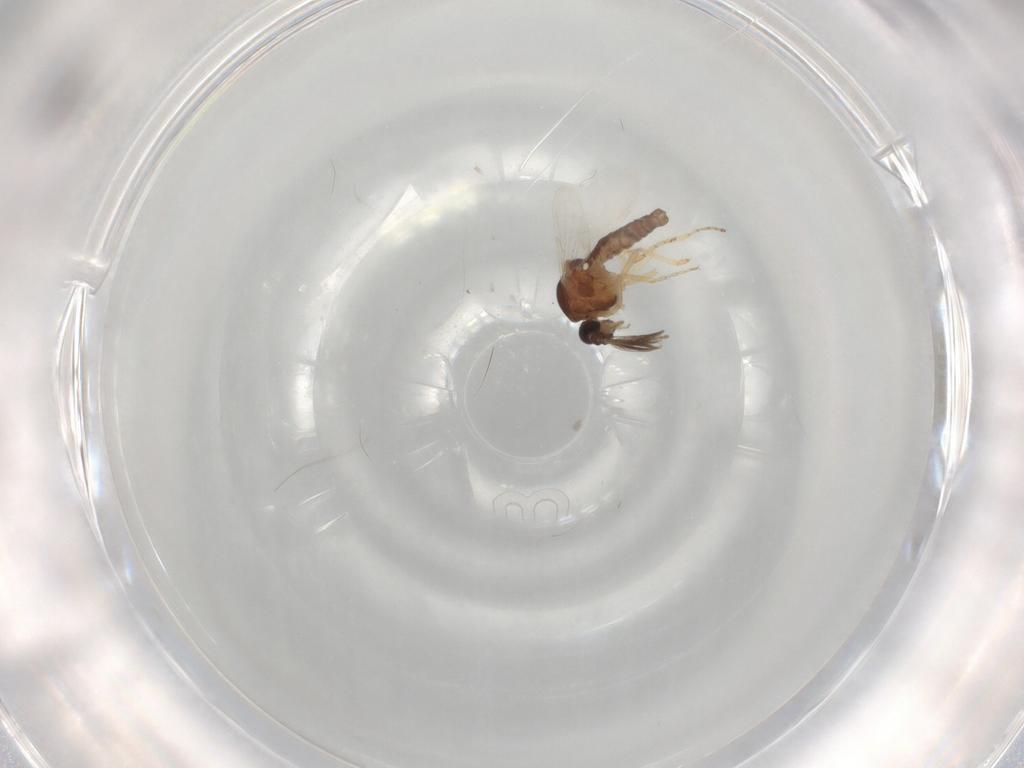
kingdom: Animalia
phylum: Arthropoda
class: Insecta
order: Diptera
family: Ceratopogonidae
